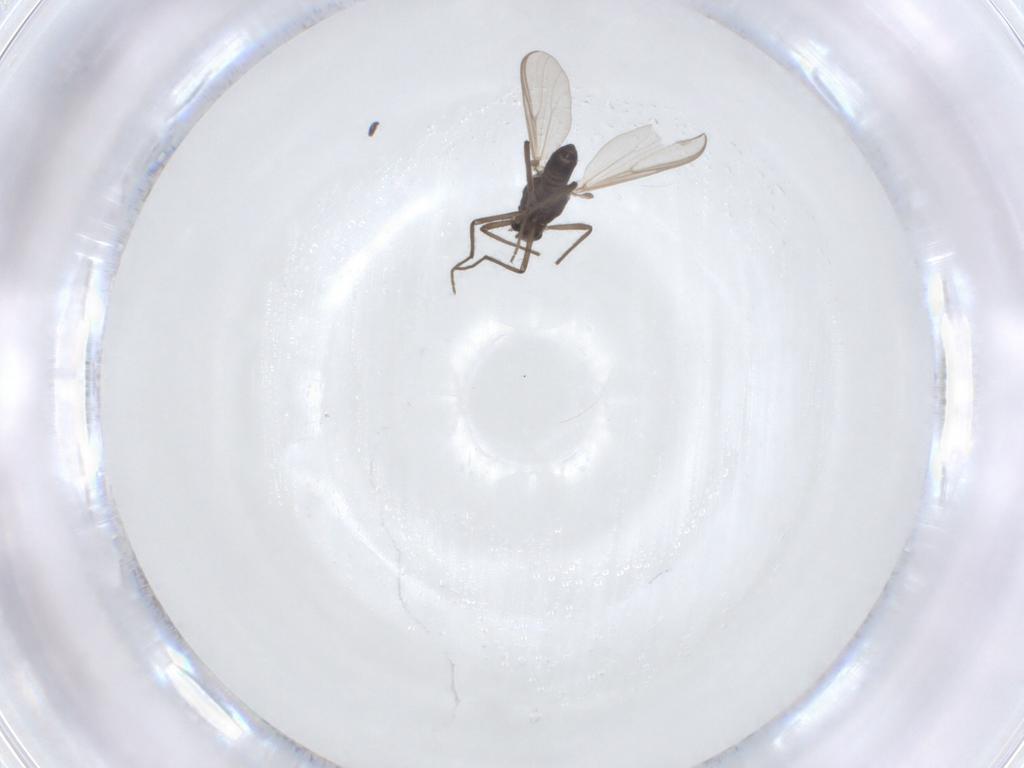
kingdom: Animalia
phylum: Arthropoda
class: Insecta
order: Diptera
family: Chironomidae
